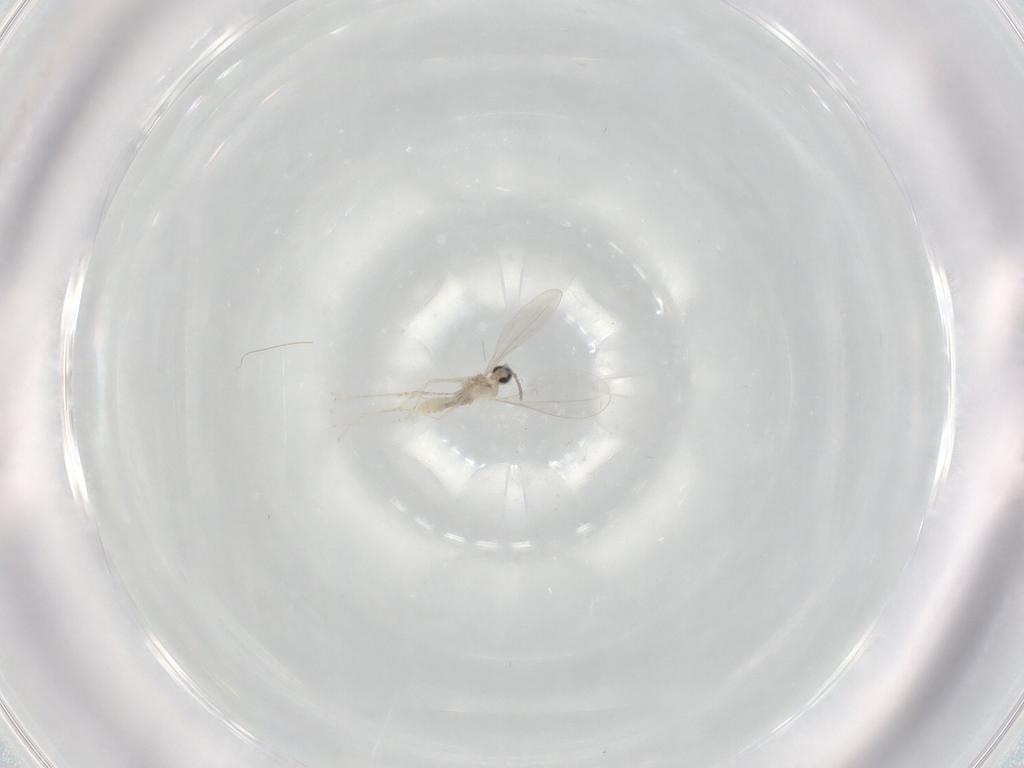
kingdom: Animalia
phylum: Arthropoda
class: Insecta
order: Diptera
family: Cecidomyiidae
